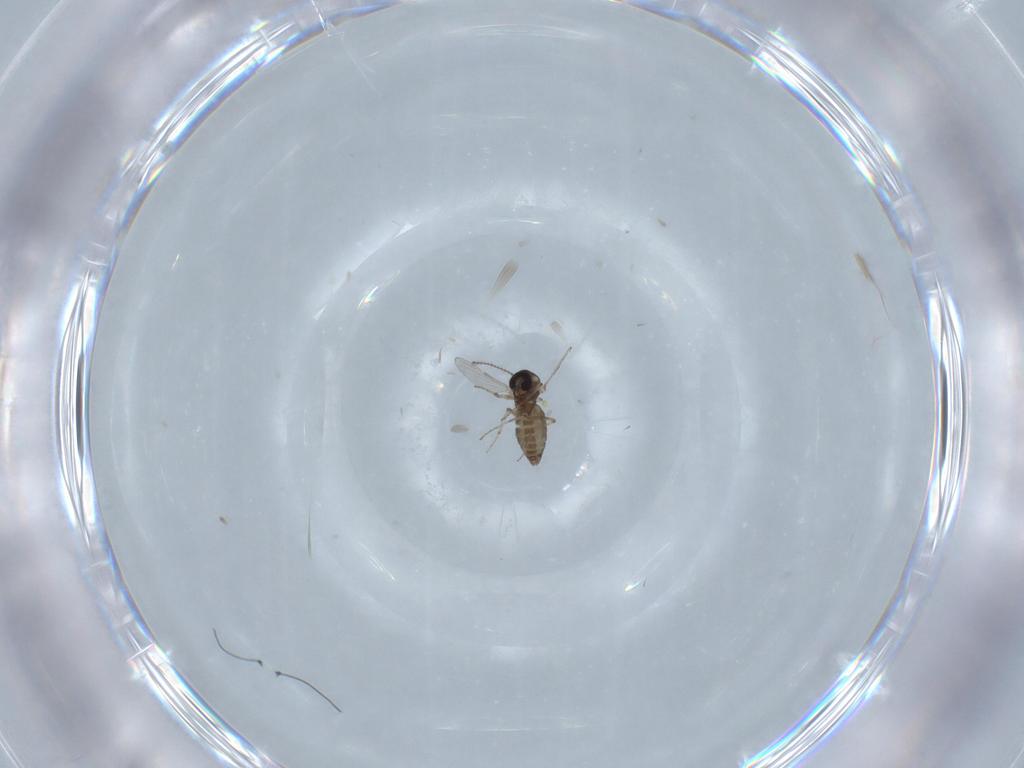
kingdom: Animalia
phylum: Arthropoda
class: Insecta
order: Diptera
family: Ceratopogonidae
